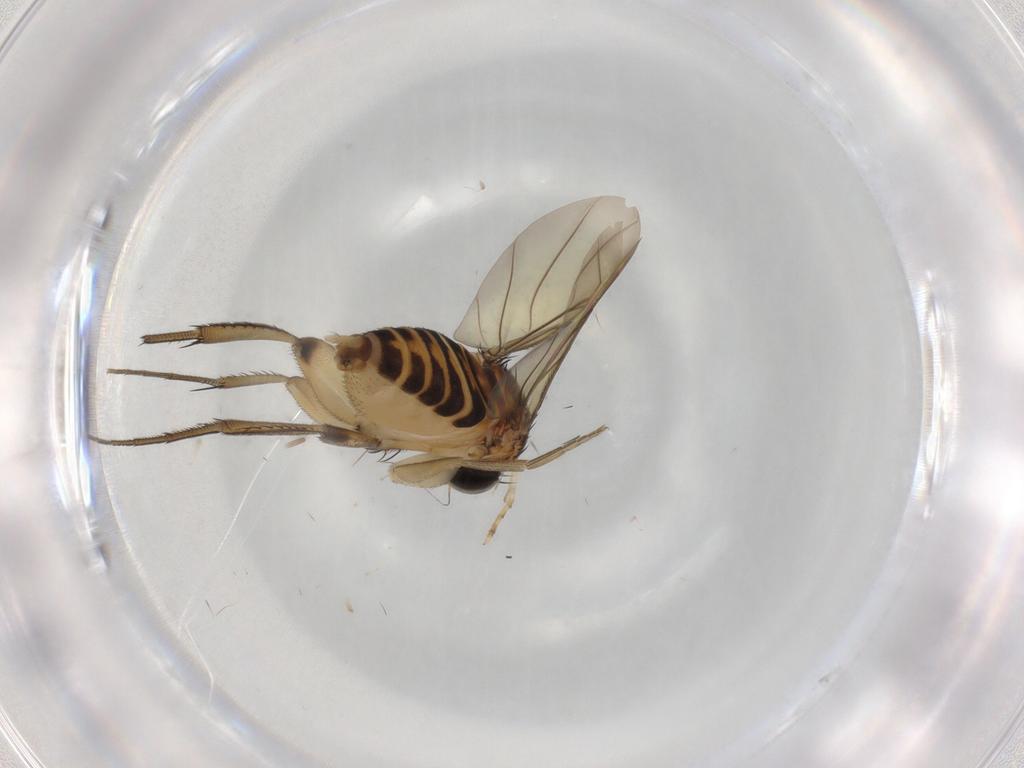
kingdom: Animalia
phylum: Arthropoda
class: Insecta
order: Diptera
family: Phoridae
